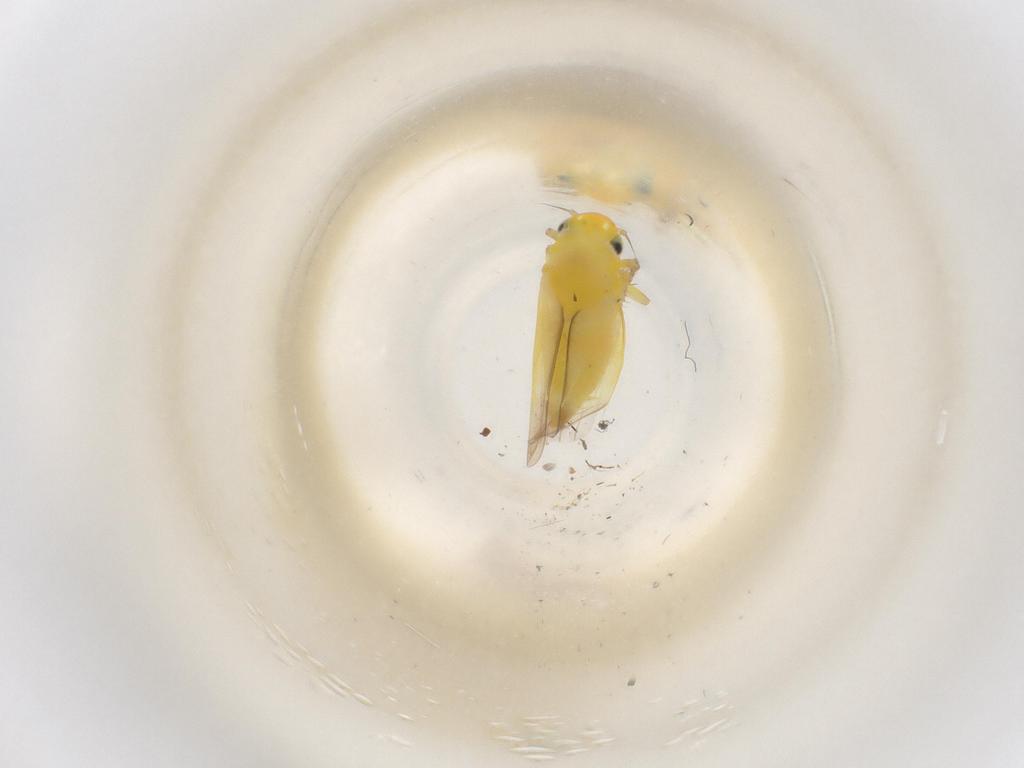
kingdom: Animalia
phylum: Arthropoda
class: Insecta
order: Hemiptera
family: Cicadellidae
